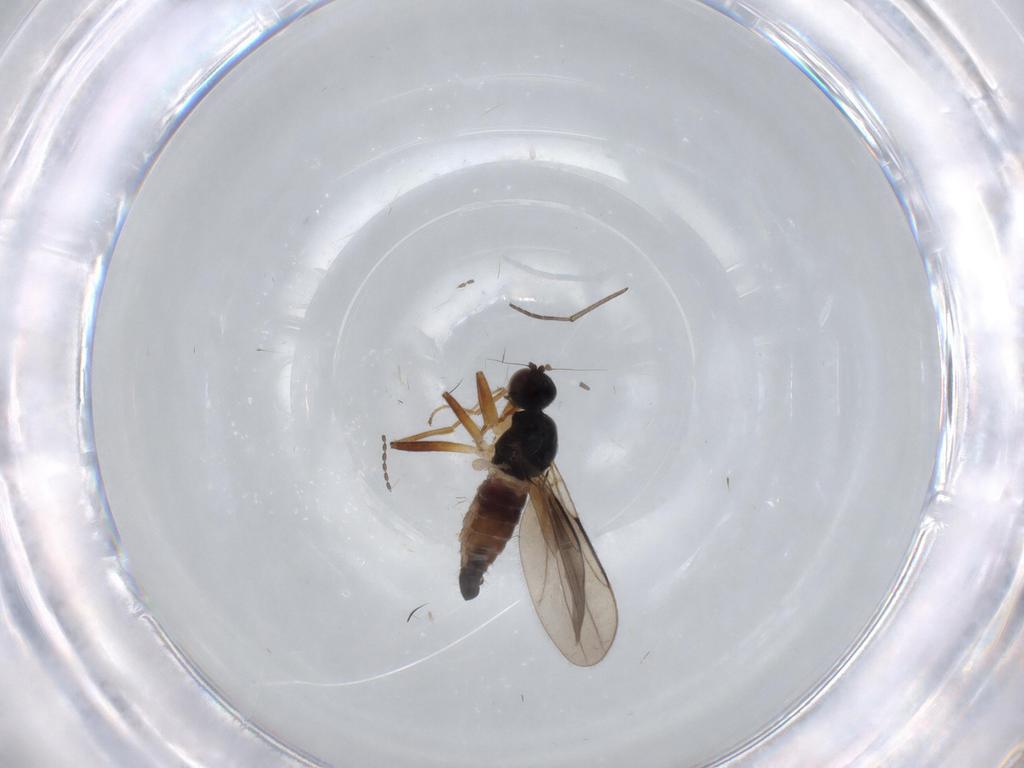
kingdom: Animalia
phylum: Arthropoda
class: Insecta
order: Diptera
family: Hybotidae
